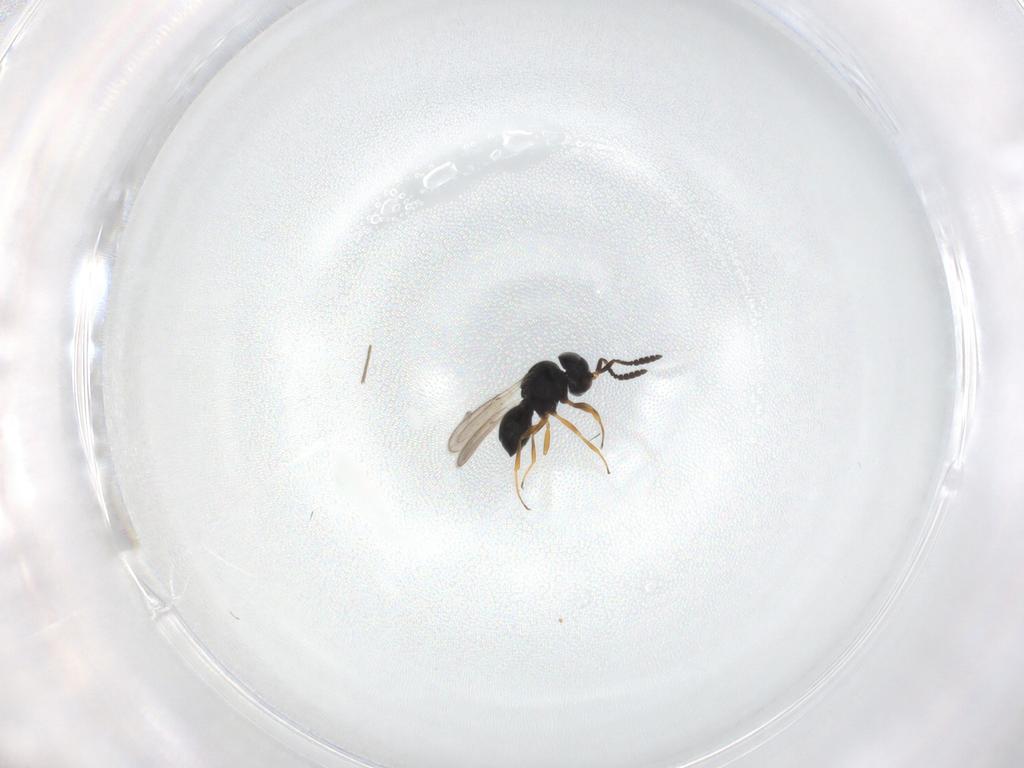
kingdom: Animalia
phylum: Arthropoda
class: Insecta
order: Hymenoptera
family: Scelionidae
